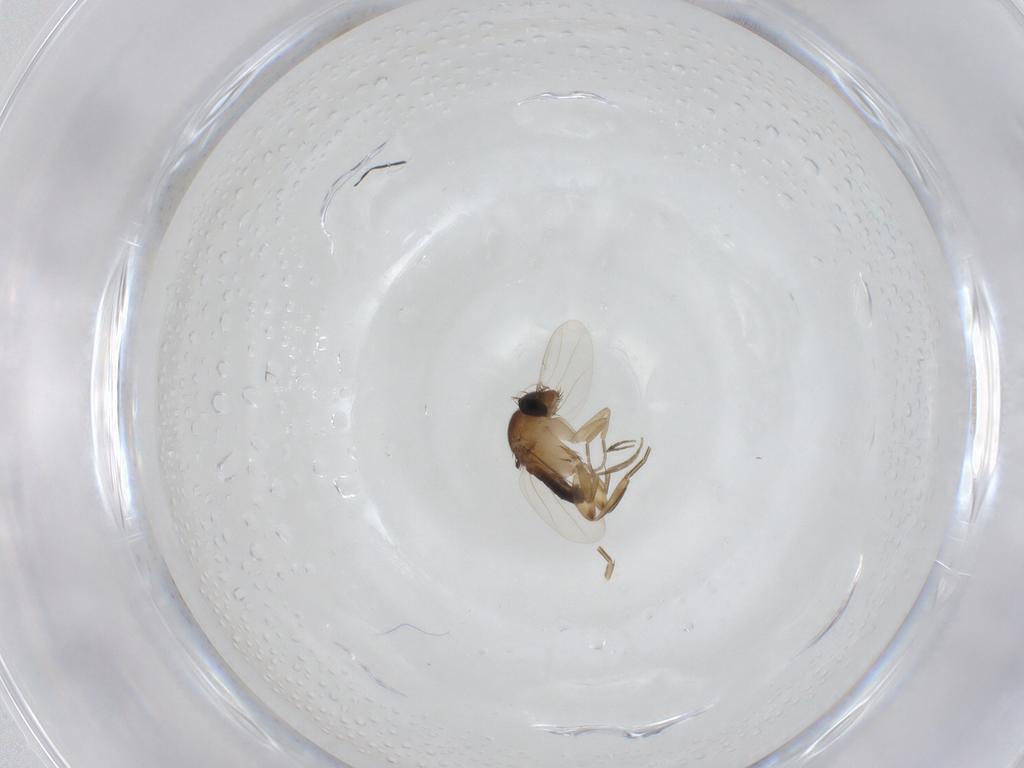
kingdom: Animalia
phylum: Arthropoda
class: Insecta
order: Diptera
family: Phoridae
